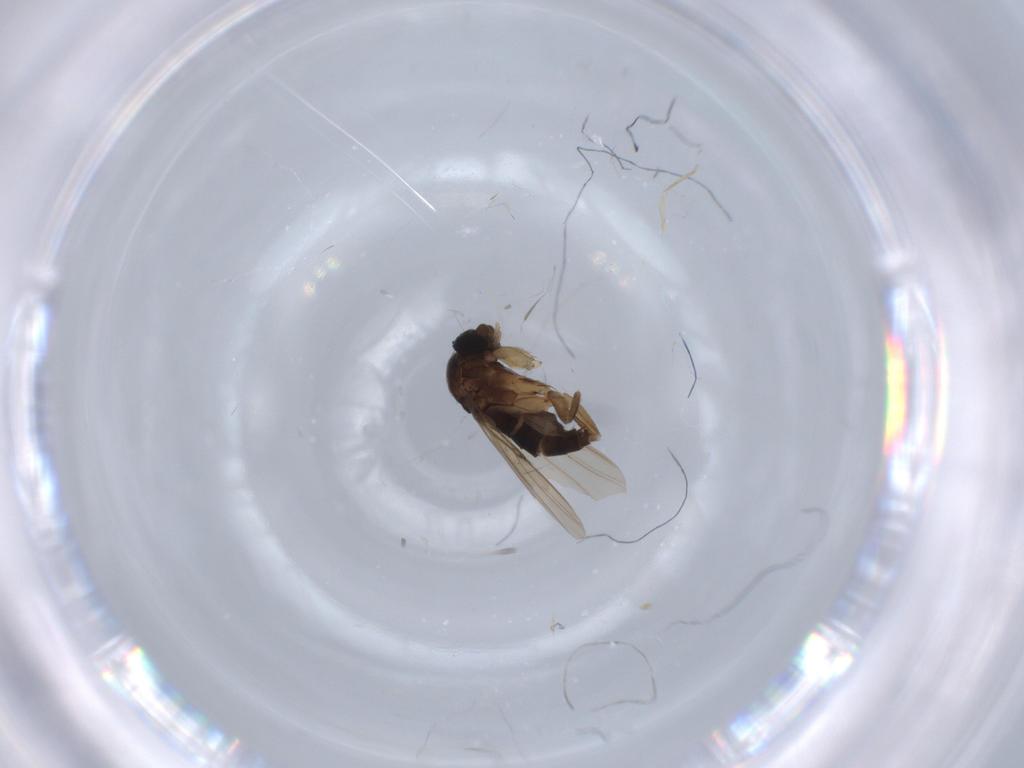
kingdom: Animalia
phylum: Arthropoda
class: Insecta
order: Diptera
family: Phoridae
